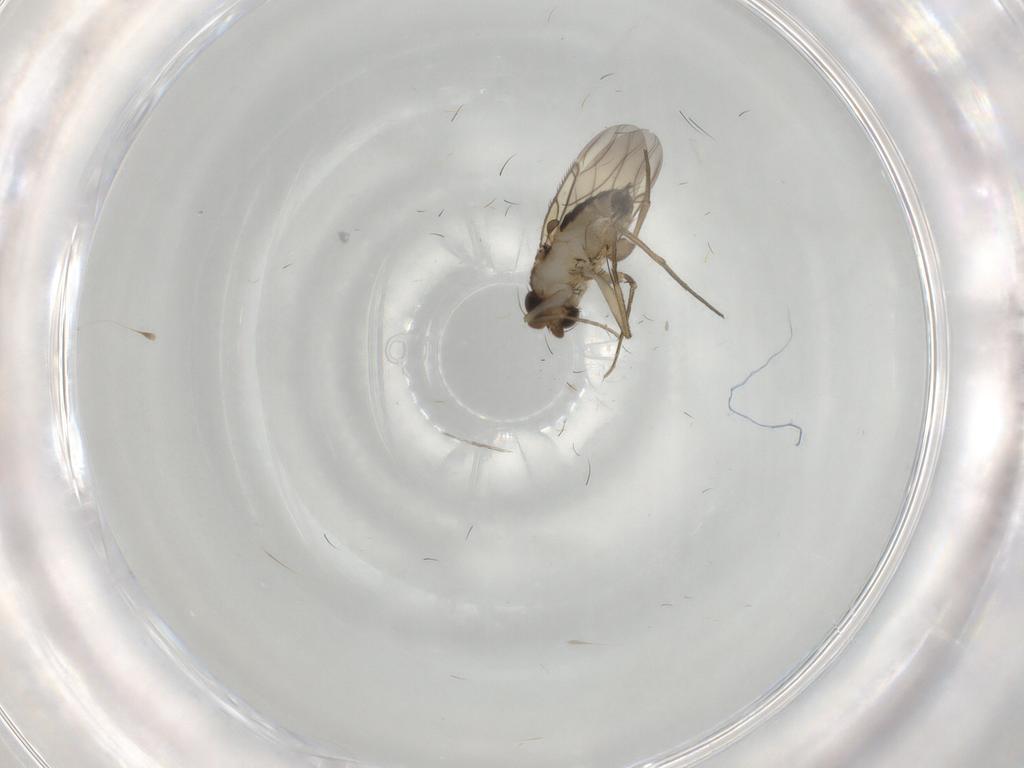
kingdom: Animalia
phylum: Arthropoda
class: Insecta
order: Diptera
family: Phoridae
